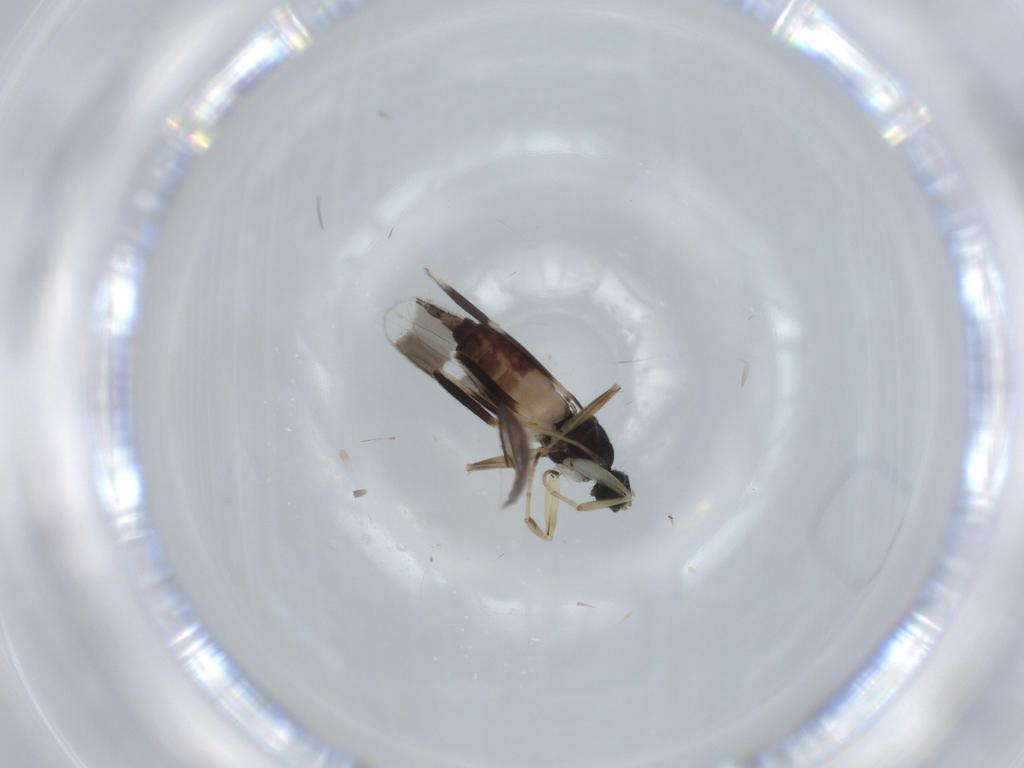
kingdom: Animalia
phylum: Arthropoda
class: Insecta
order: Diptera
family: Hybotidae
